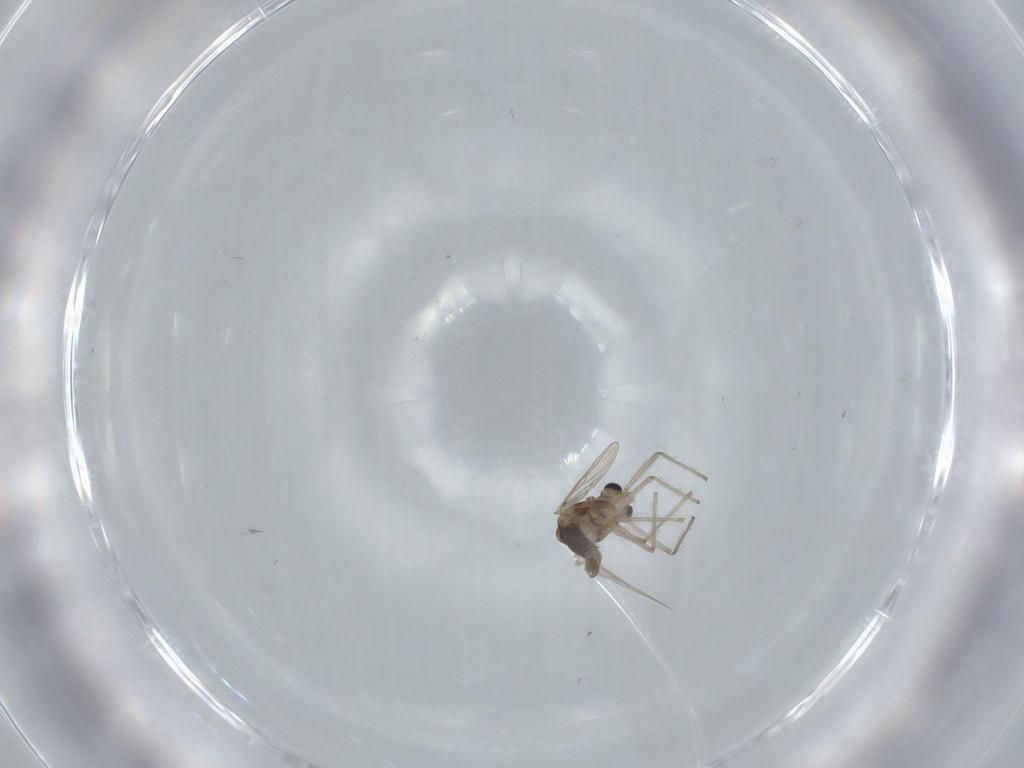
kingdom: Animalia
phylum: Arthropoda
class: Insecta
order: Diptera
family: Chironomidae
